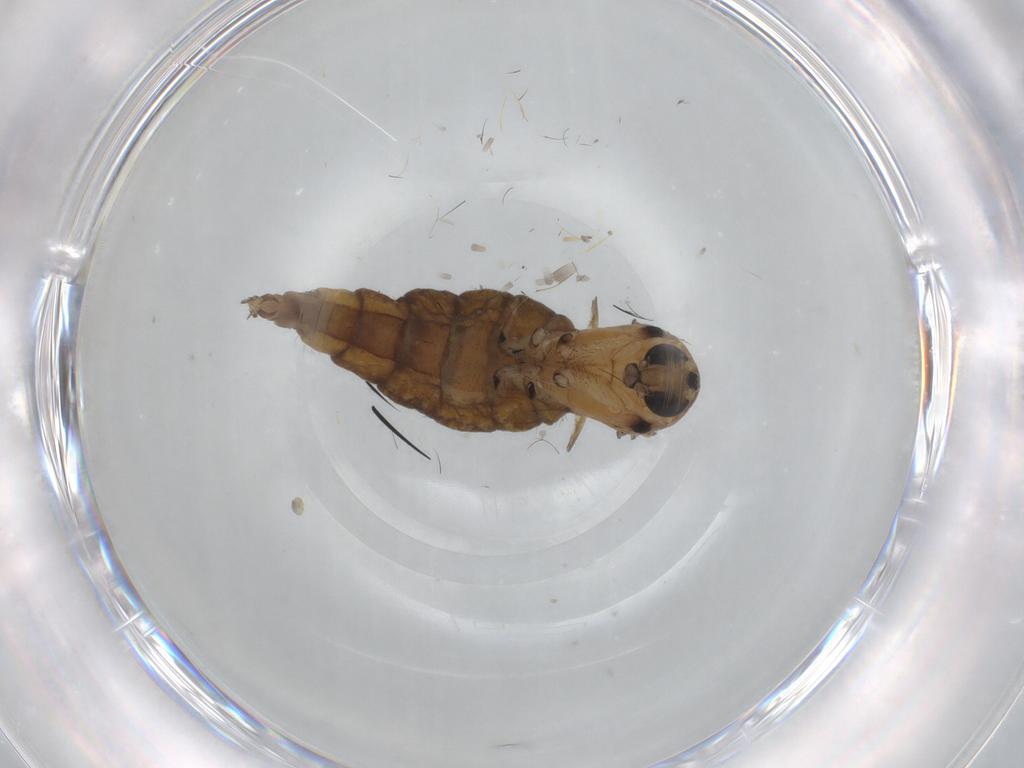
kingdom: Animalia
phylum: Arthropoda
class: Insecta
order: Diptera
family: Sciaridae
